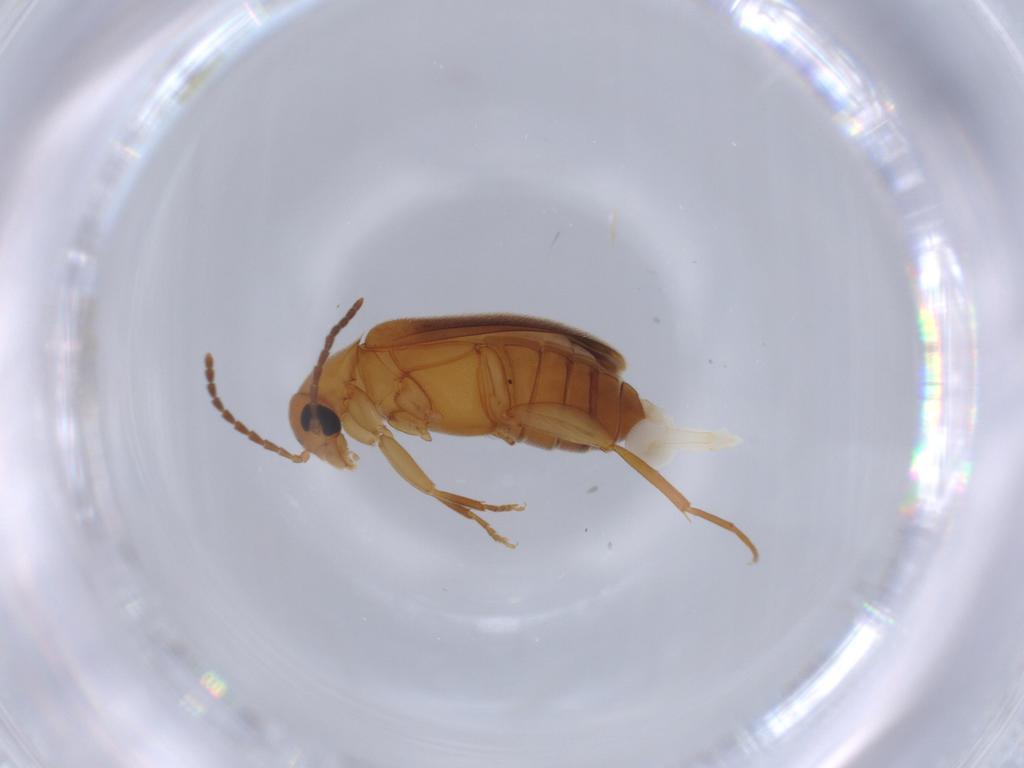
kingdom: Animalia
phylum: Arthropoda
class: Insecta
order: Coleoptera
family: Scraptiidae
